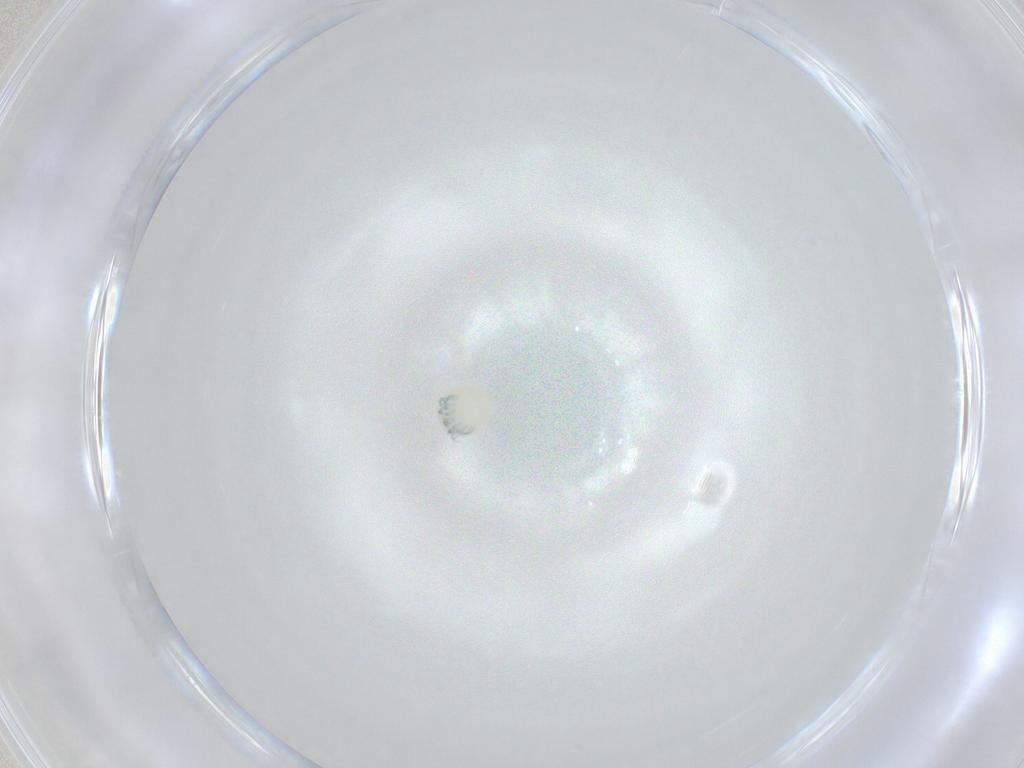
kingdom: Animalia
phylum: Arthropoda
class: Arachnida
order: Trombidiformes
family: Arrenuridae
